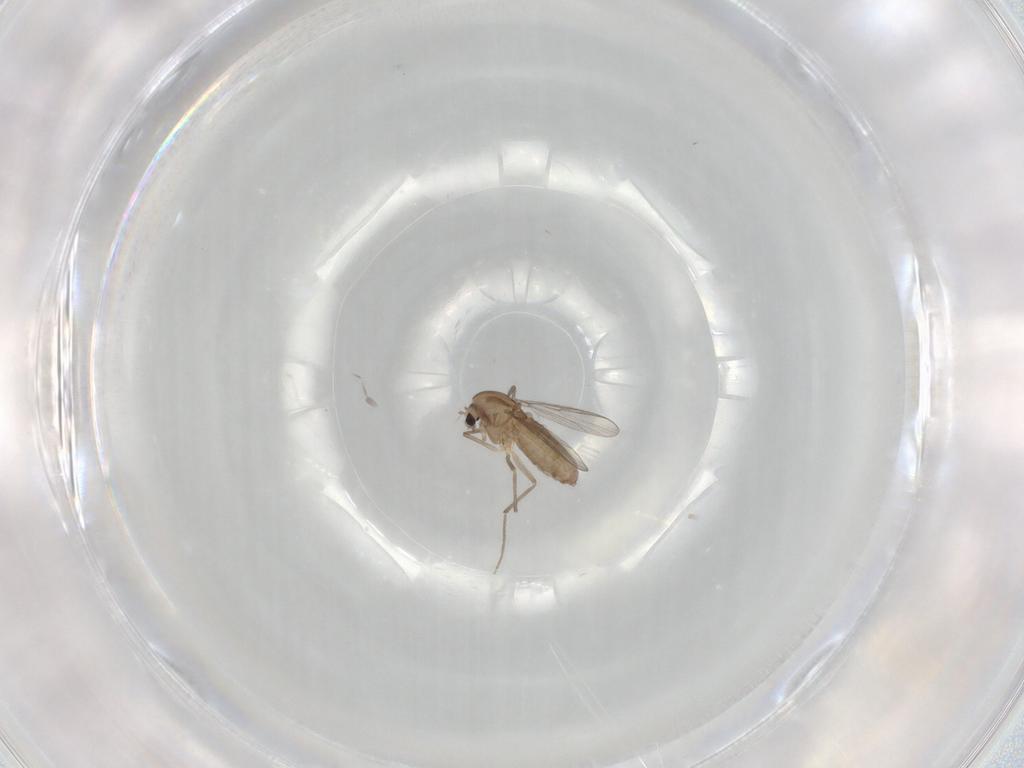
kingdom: Animalia
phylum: Arthropoda
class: Insecta
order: Diptera
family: Chironomidae
